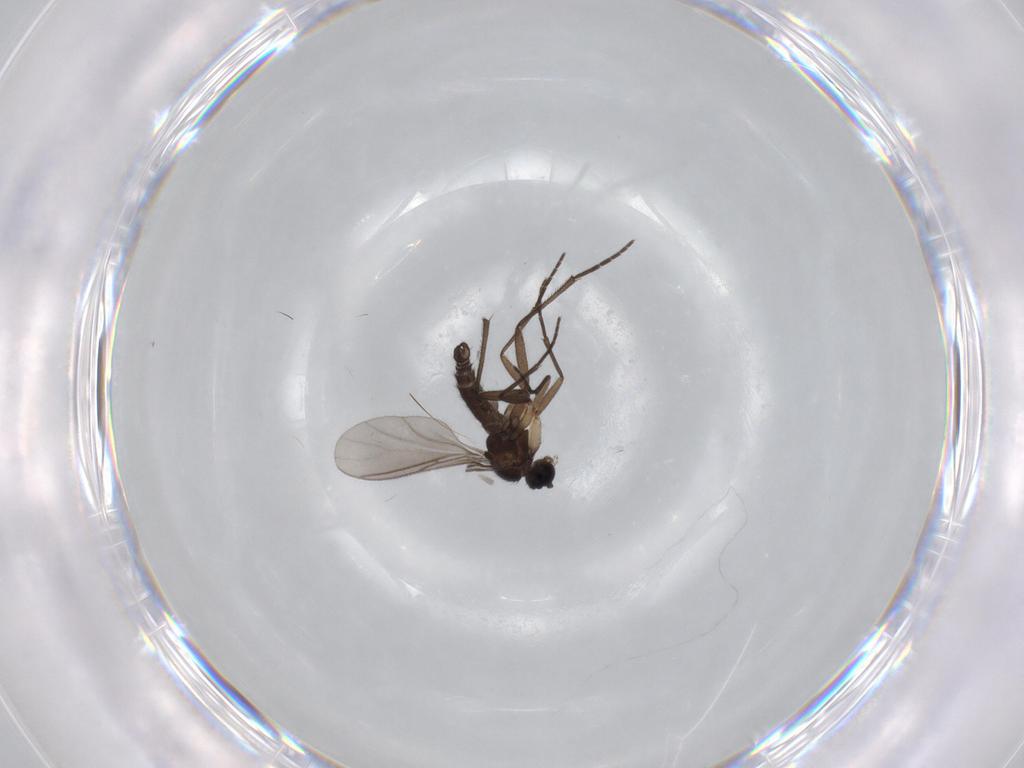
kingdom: Animalia
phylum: Arthropoda
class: Insecta
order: Diptera
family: Sciaridae
